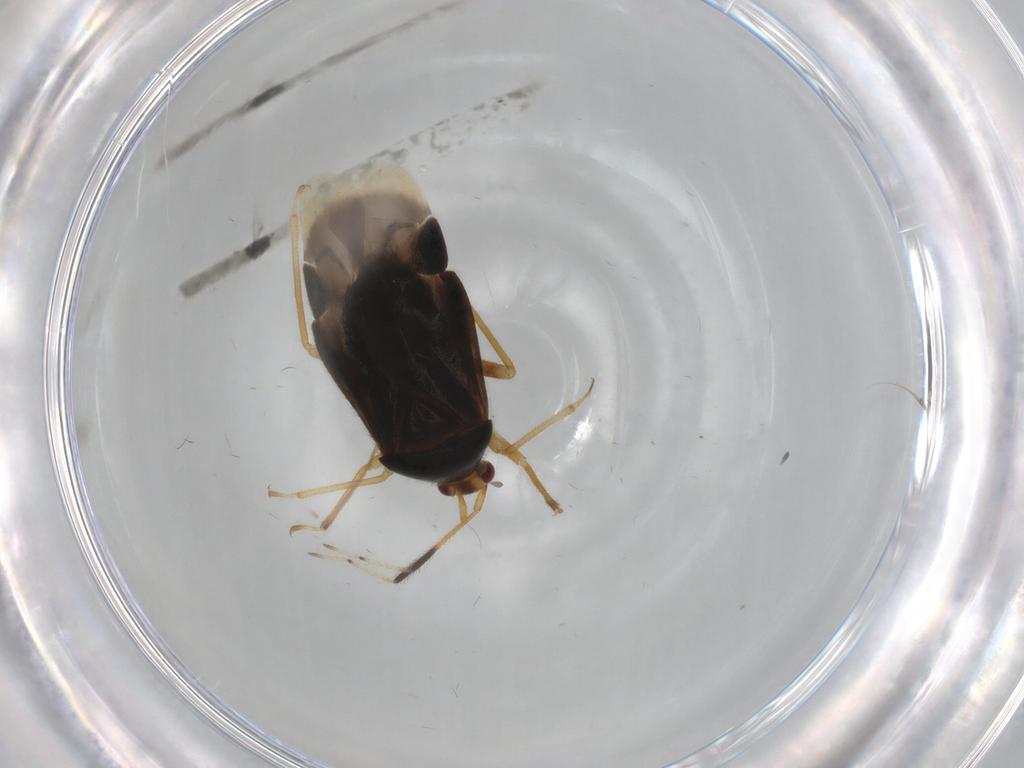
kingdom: Animalia
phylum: Arthropoda
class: Insecta
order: Hemiptera
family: Miridae
